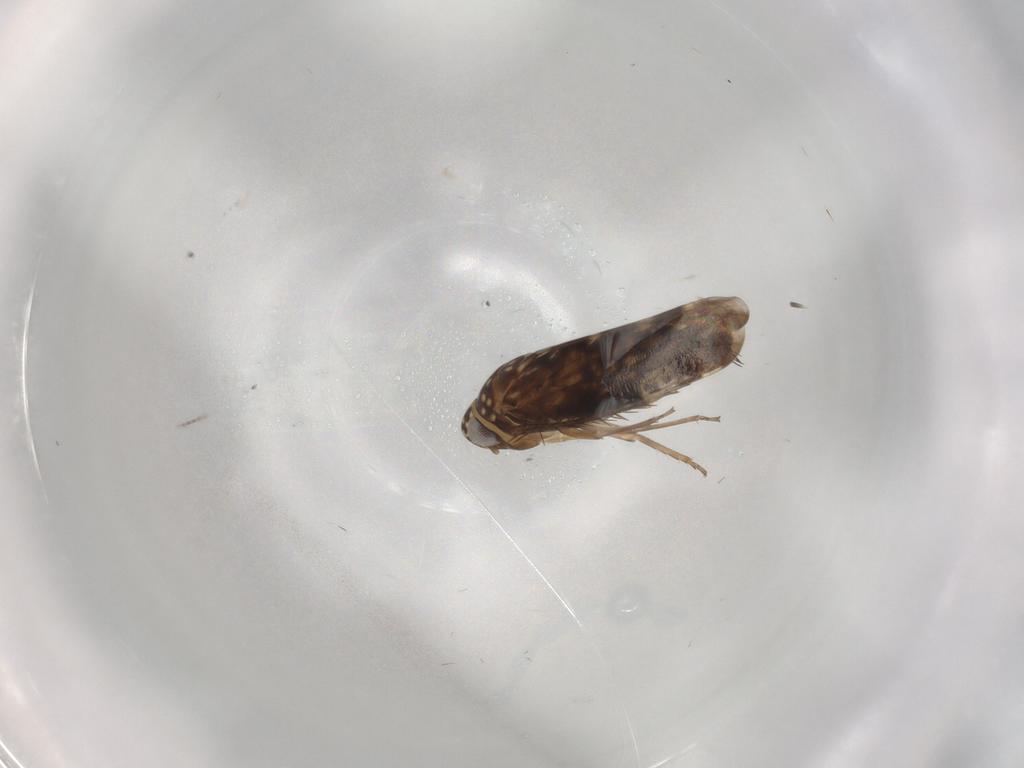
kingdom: Animalia
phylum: Arthropoda
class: Insecta
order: Hemiptera
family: Cicadellidae
